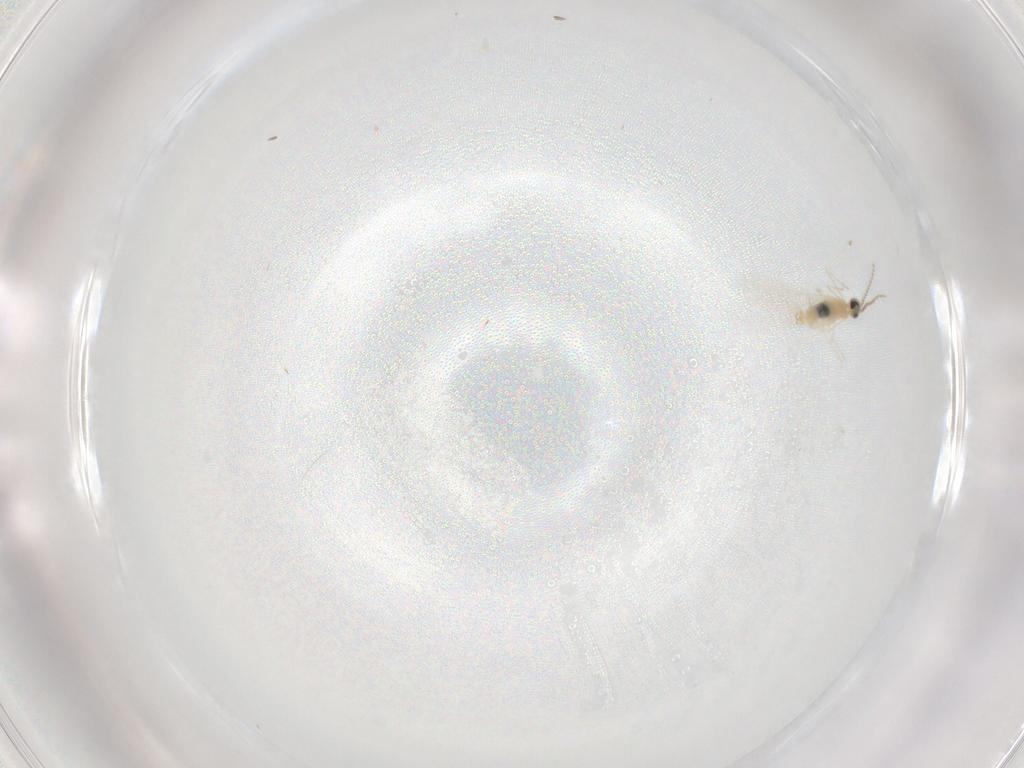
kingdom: Animalia
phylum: Arthropoda
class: Insecta
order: Diptera
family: Cecidomyiidae
